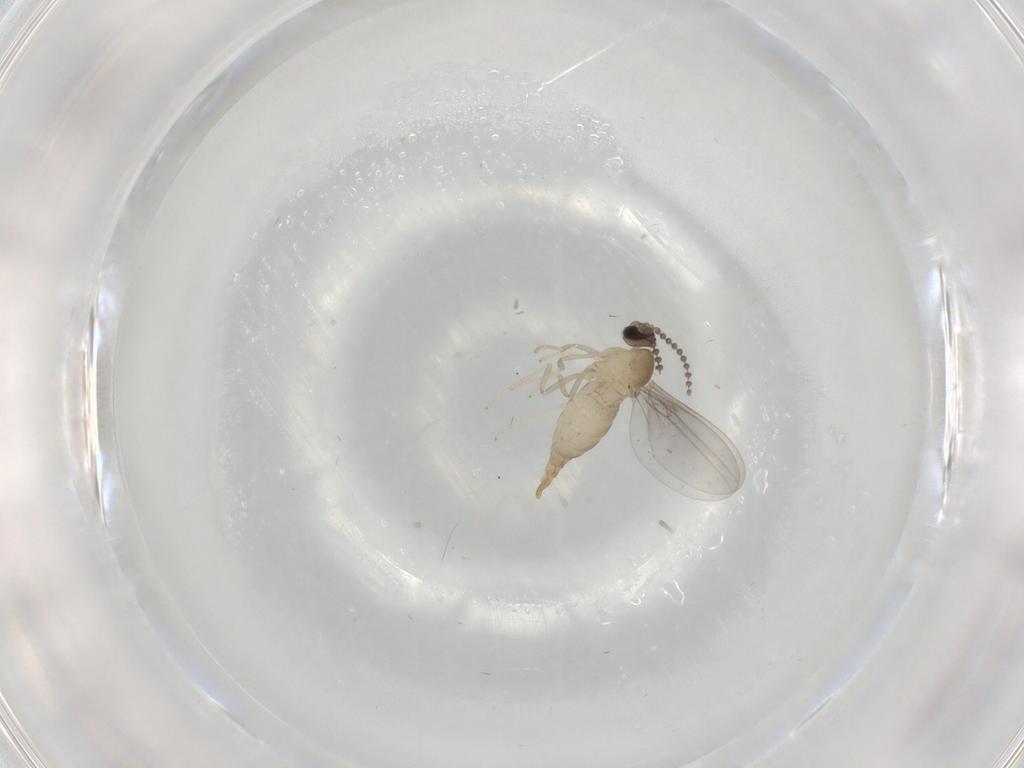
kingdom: Animalia
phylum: Arthropoda
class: Insecta
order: Diptera
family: Cecidomyiidae
